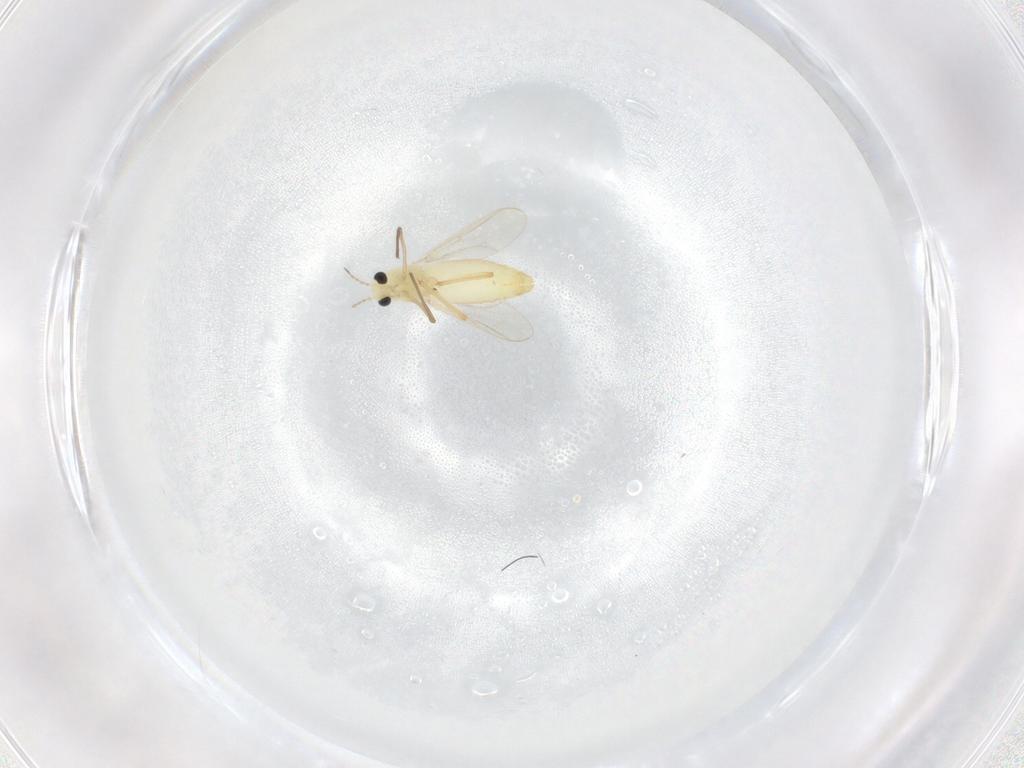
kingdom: Animalia
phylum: Arthropoda
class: Insecta
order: Diptera
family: Chironomidae
